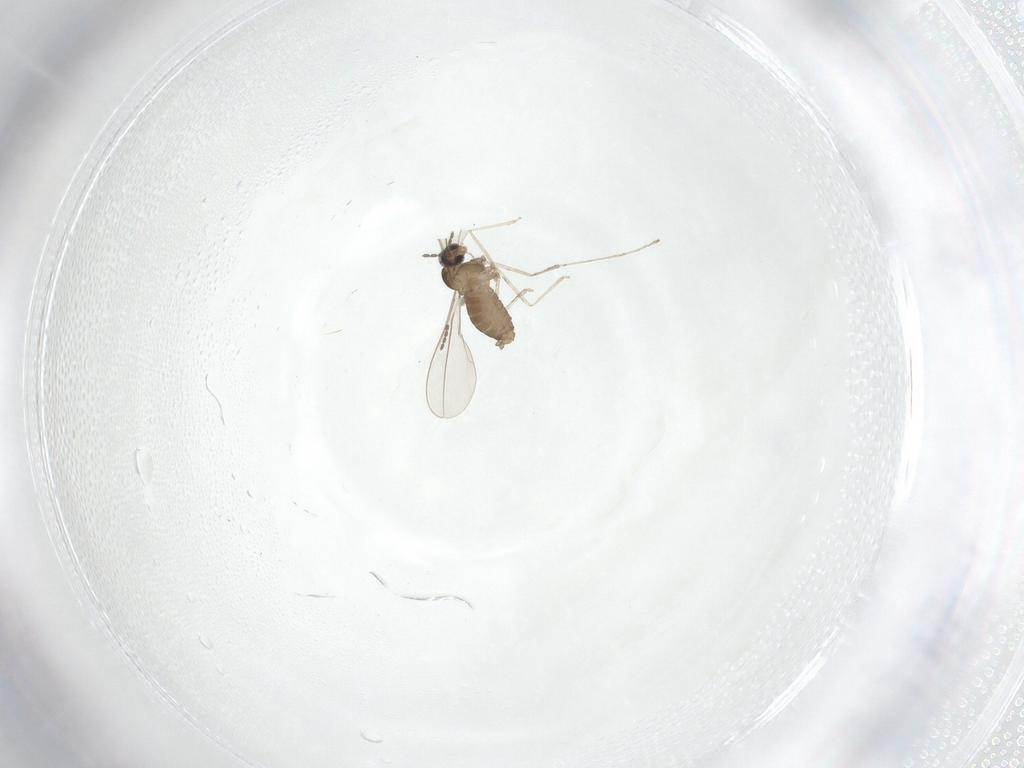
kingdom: Animalia
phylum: Arthropoda
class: Insecta
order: Diptera
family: Cecidomyiidae
